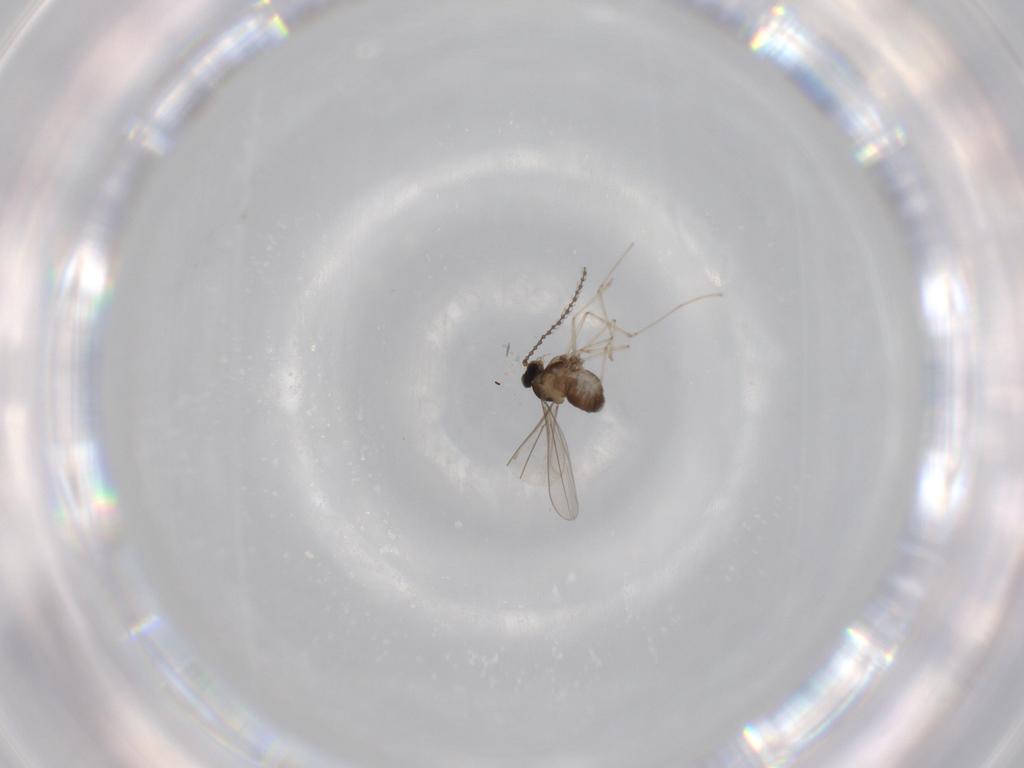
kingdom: Animalia
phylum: Arthropoda
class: Insecta
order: Diptera
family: Cecidomyiidae
